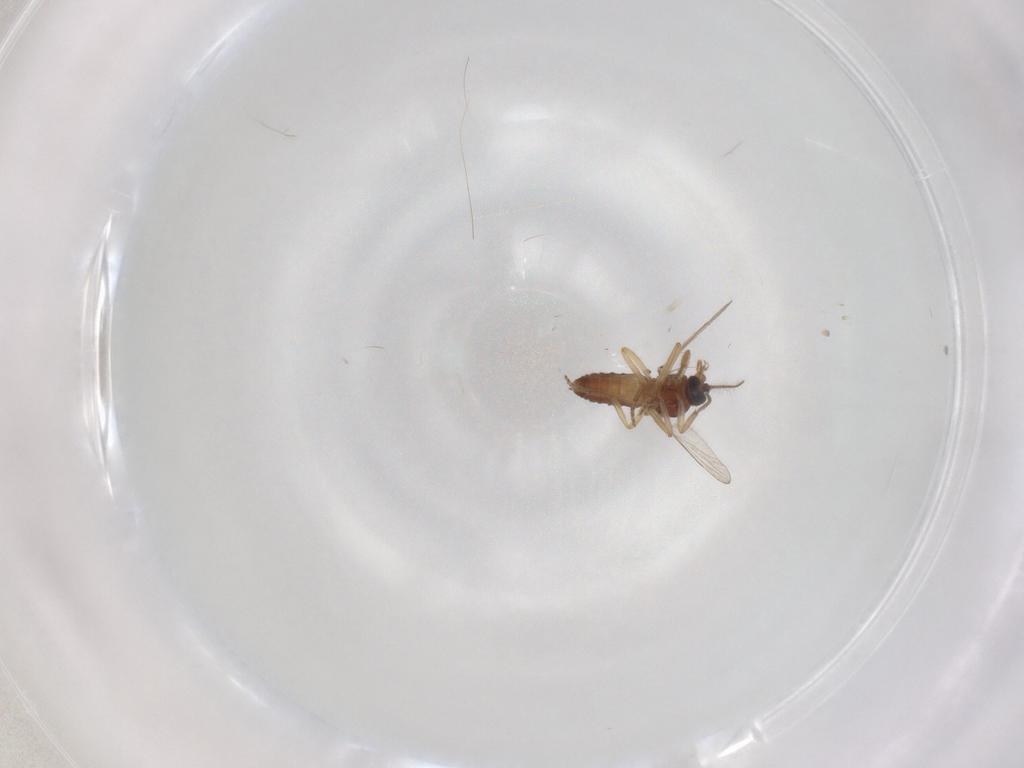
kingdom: Animalia
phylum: Arthropoda
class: Insecta
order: Diptera
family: Ceratopogonidae
